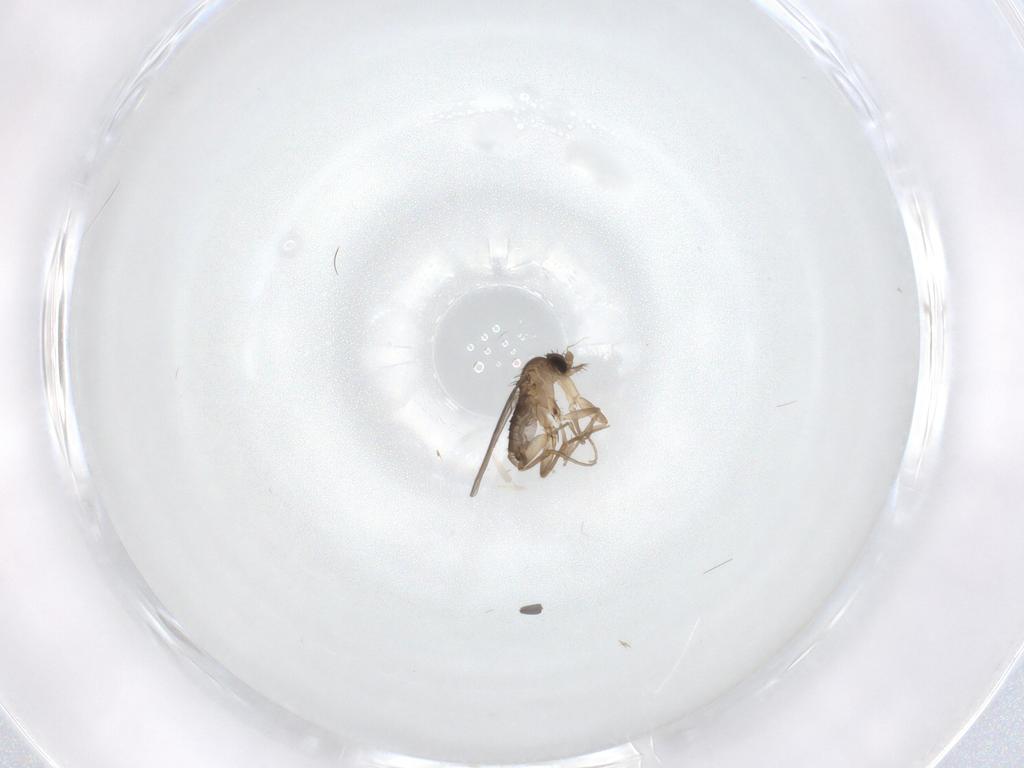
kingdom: Animalia
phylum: Arthropoda
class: Insecta
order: Diptera
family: Phoridae
